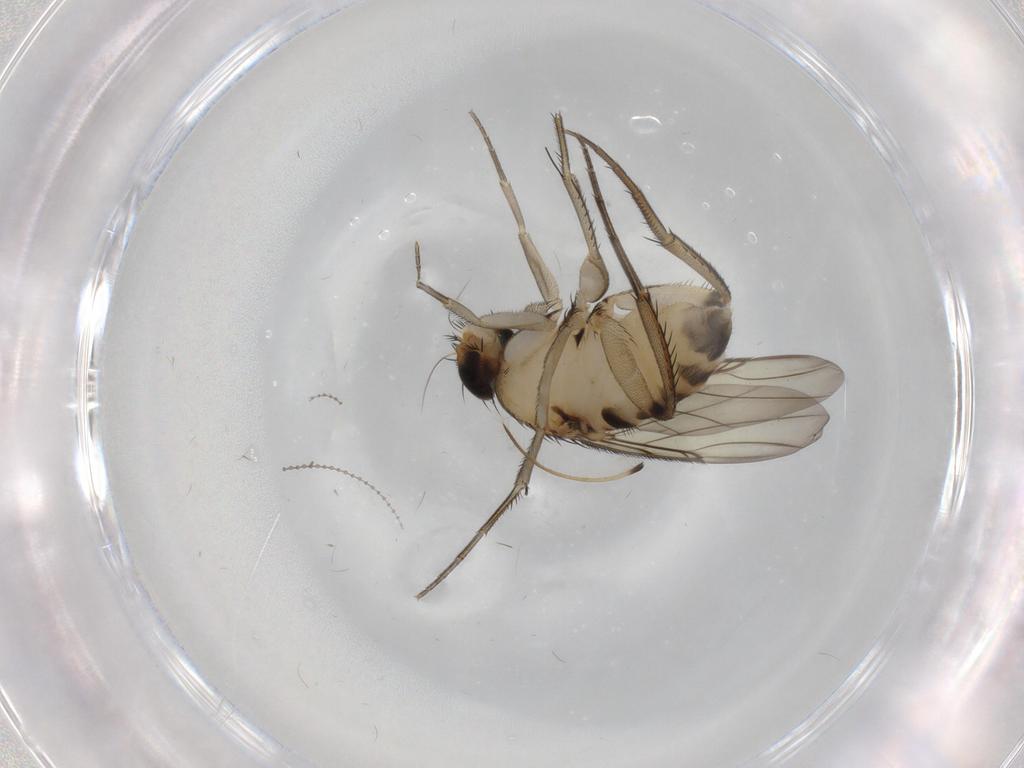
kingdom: Animalia
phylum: Arthropoda
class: Insecta
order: Diptera
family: Phoridae
